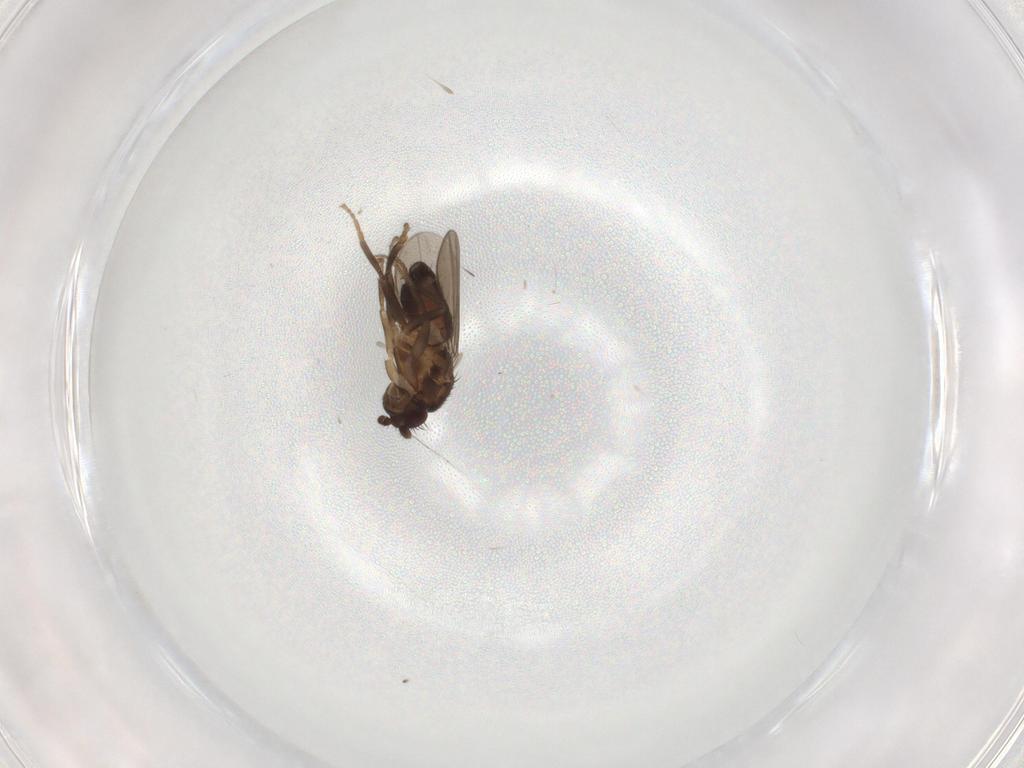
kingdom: Animalia
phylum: Arthropoda
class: Insecta
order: Diptera
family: Sphaeroceridae
